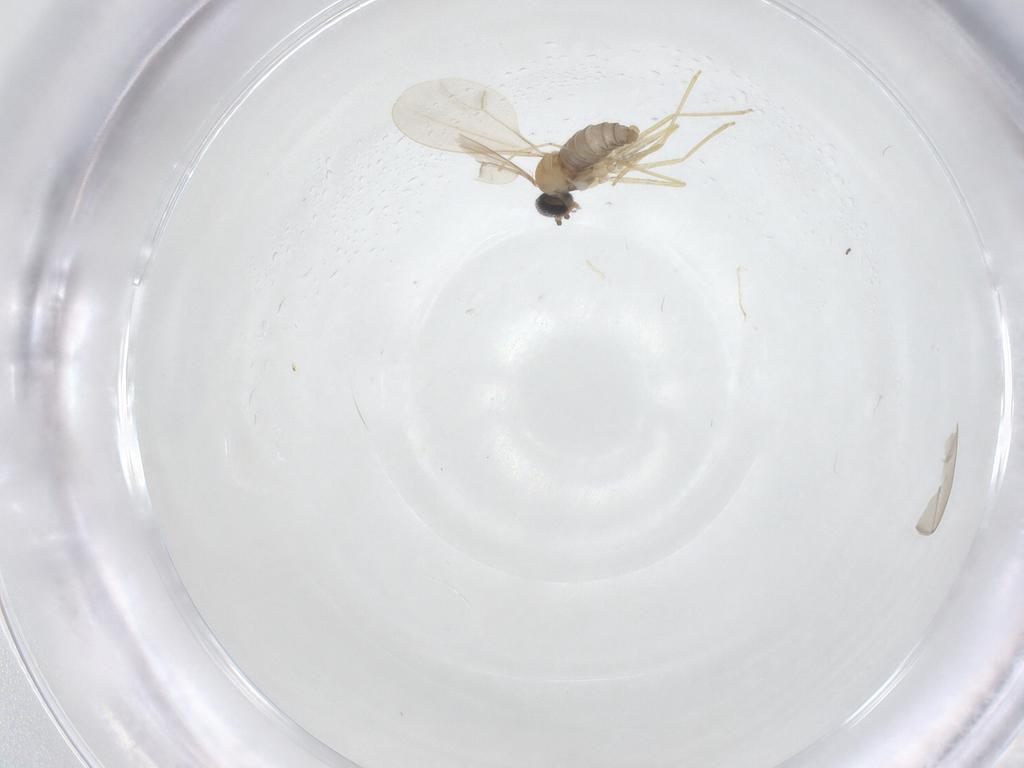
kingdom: Animalia
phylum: Arthropoda
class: Insecta
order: Diptera
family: Cecidomyiidae
